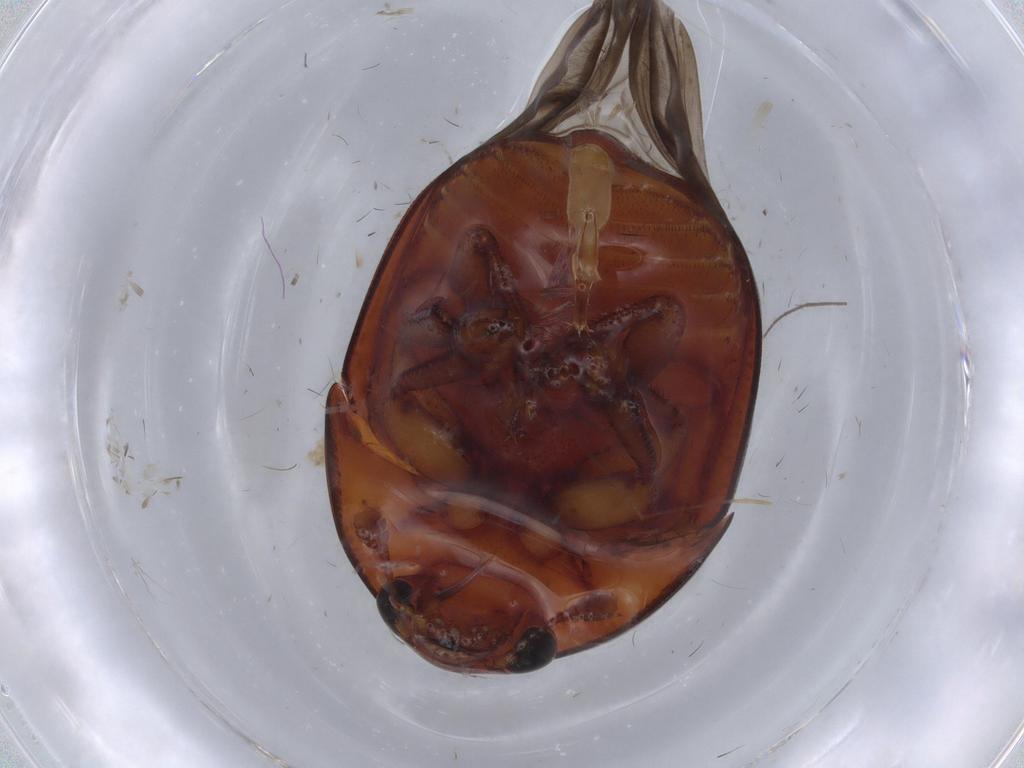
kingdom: Animalia
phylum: Arthropoda
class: Insecta
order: Coleoptera
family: Nitidulidae
